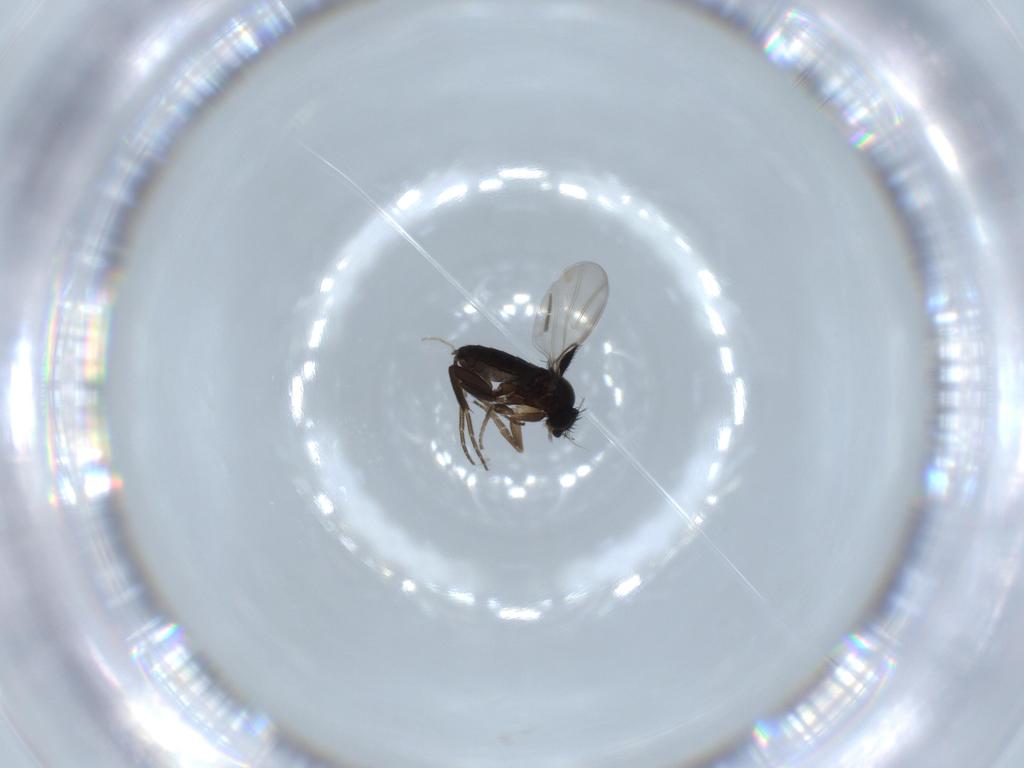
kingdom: Animalia
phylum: Arthropoda
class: Insecta
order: Diptera
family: Phoridae
